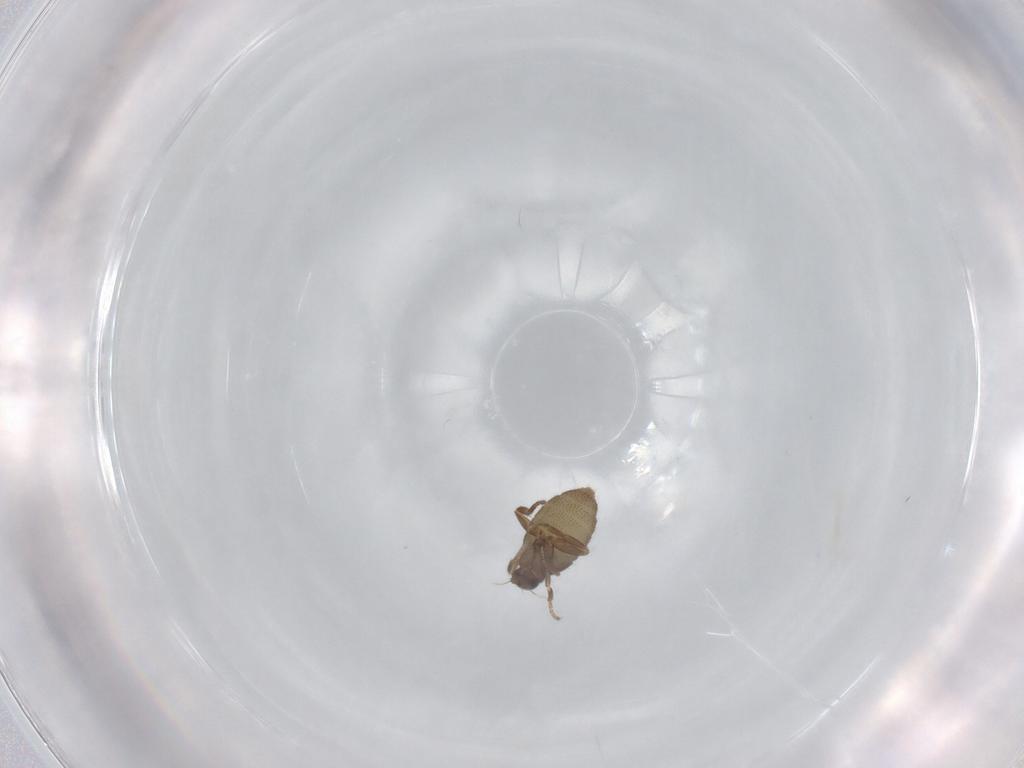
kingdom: Animalia
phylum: Arthropoda
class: Insecta
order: Diptera
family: Phoridae
